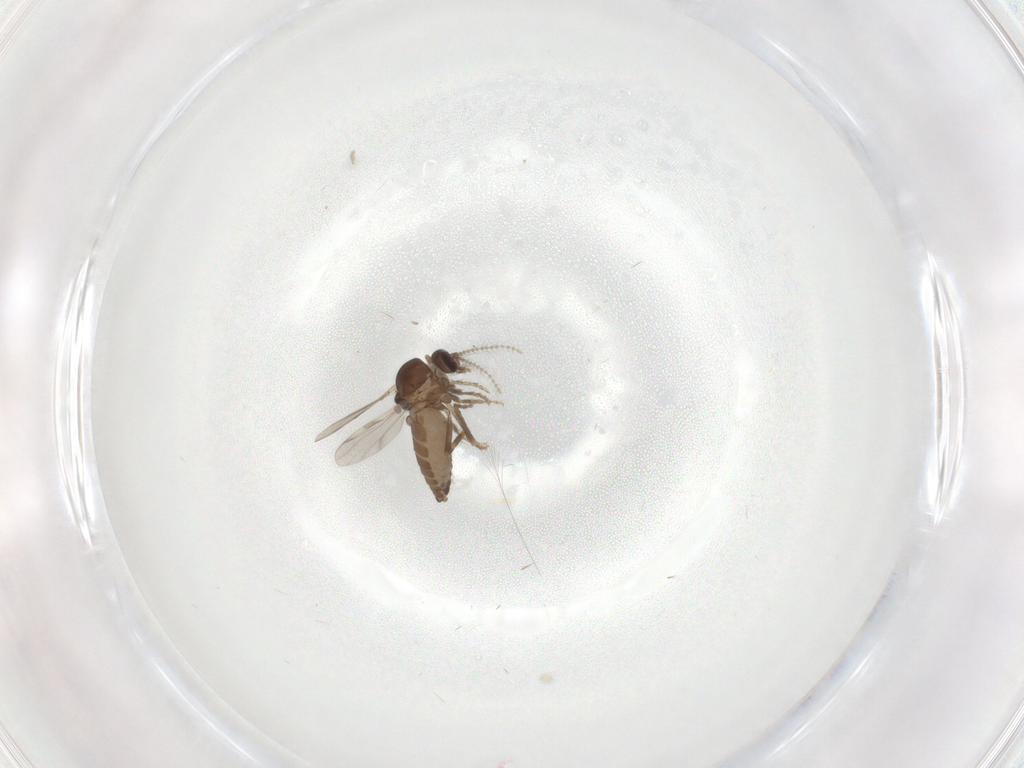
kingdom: Animalia
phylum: Arthropoda
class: Insecta
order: Diptera
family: Ceratopogonidae
